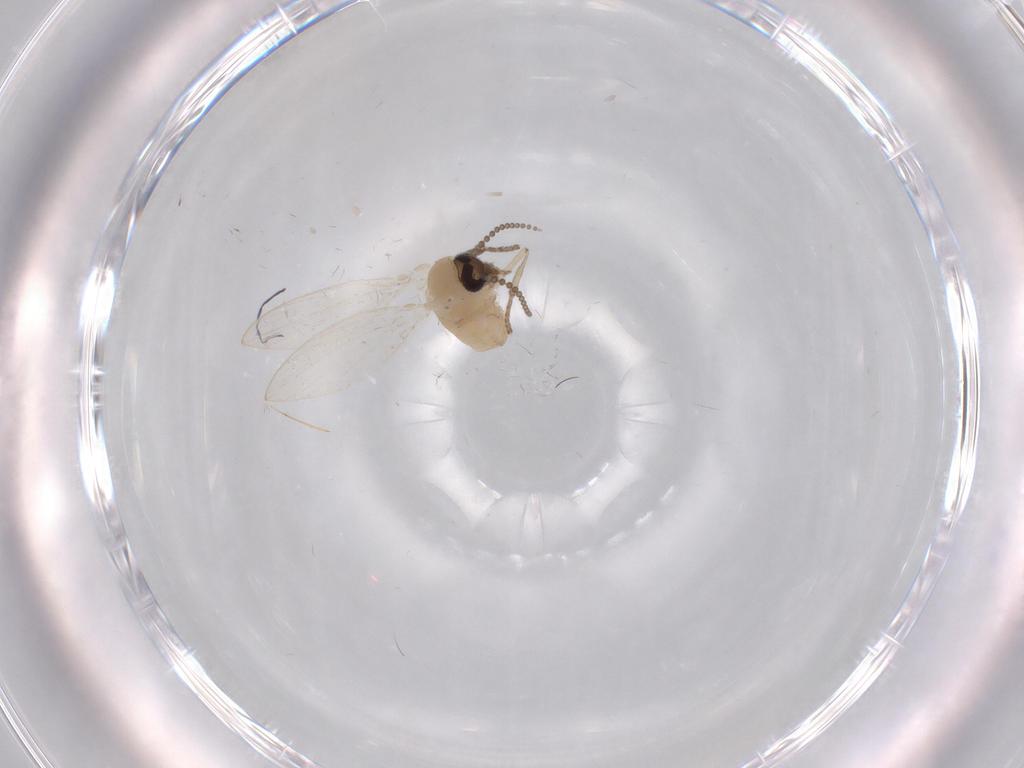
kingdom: Animalia
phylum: Arthropoda
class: Insecta
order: Diptera
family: Psychodidae
